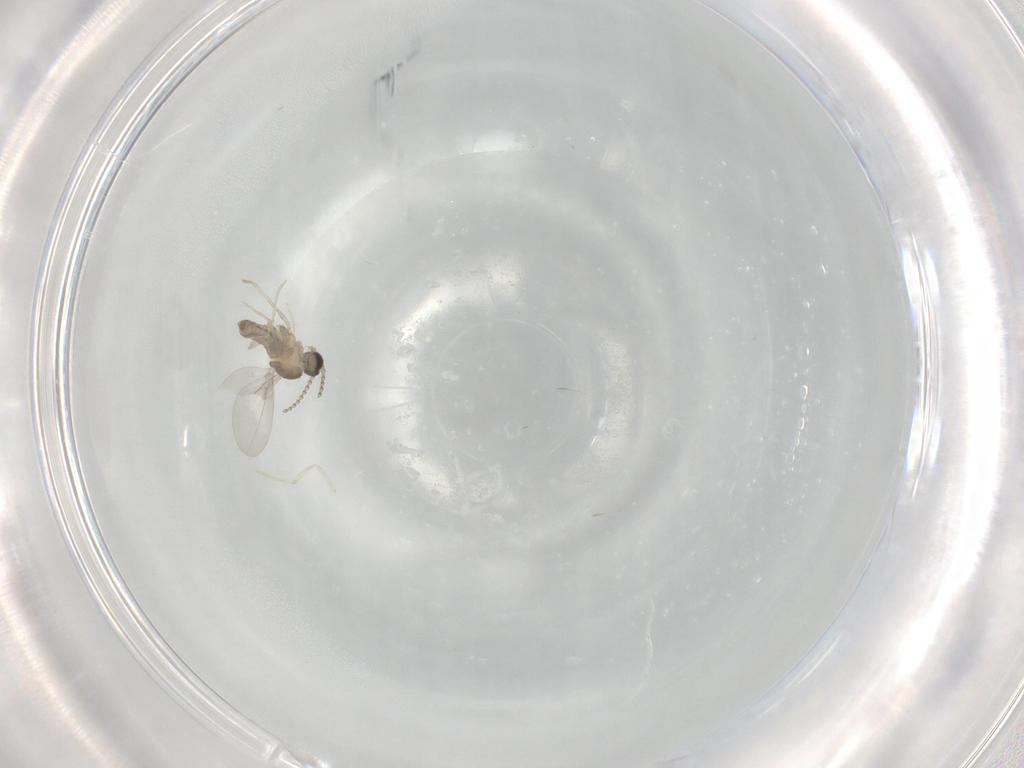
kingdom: Animalia
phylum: Arthropoda
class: Insecta
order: Diptera
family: Cecidomyiidae
